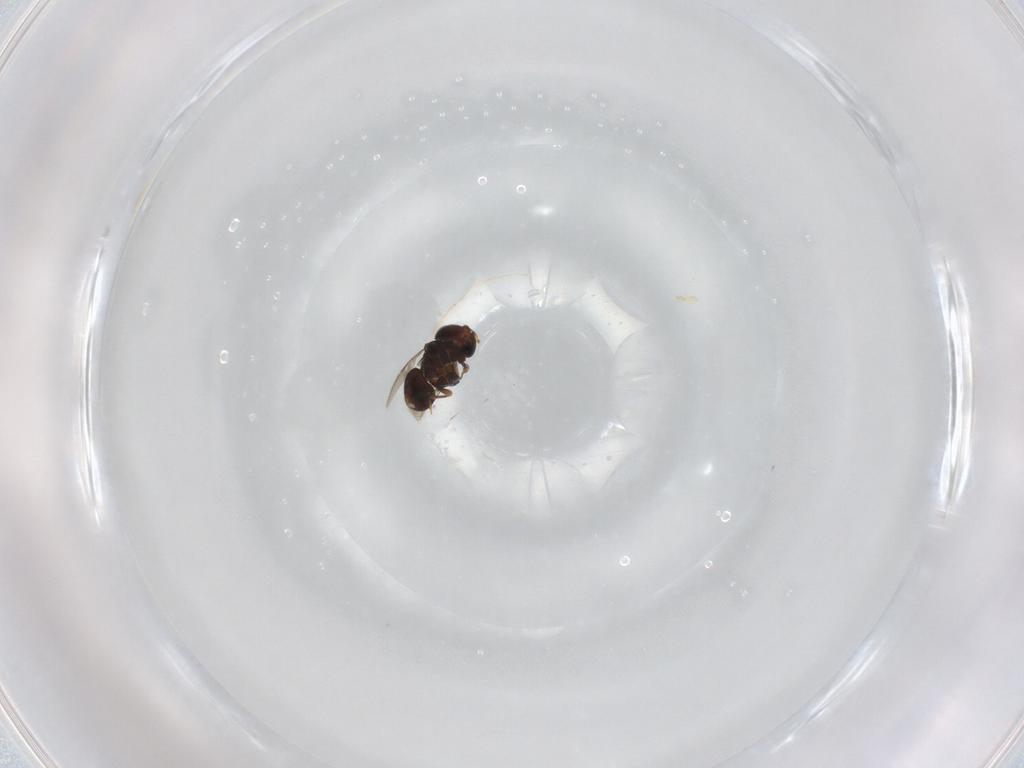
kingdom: Animalia
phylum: Arthropoda
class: Insecta
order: Hymenoptera
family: Scelionidae
